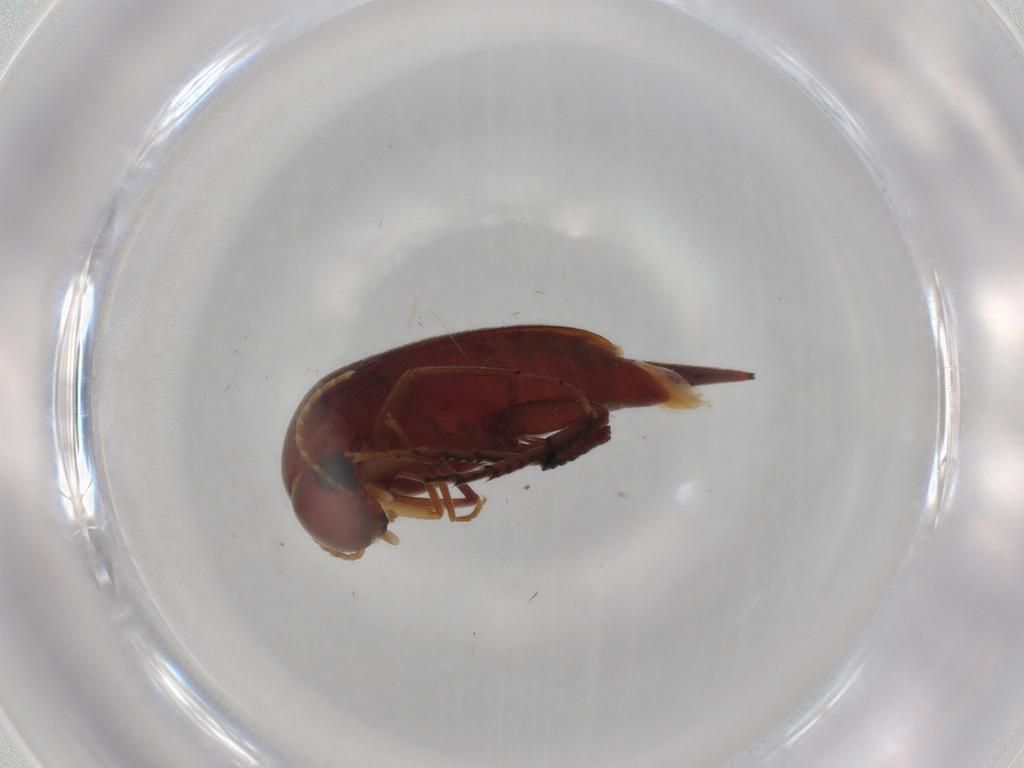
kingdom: Animalia
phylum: Arthropoda
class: Insecta
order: Coleoptera
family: Mordellidae
